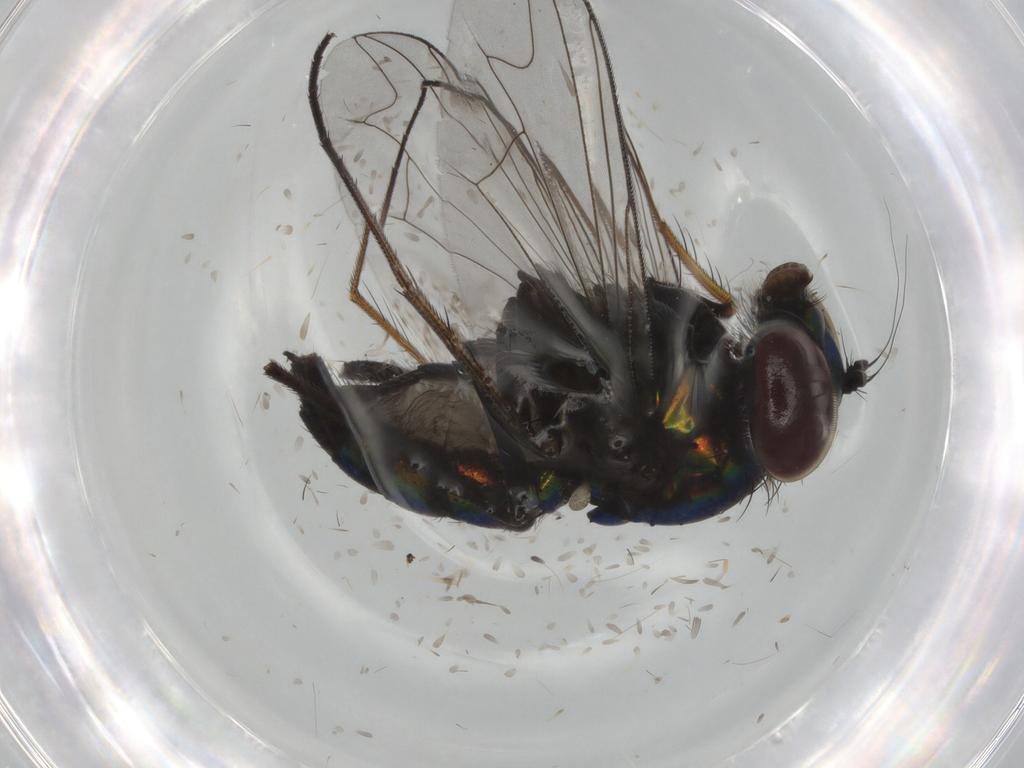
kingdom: Animalia
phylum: Arthropoda
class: Insecta
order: Diptera
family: Dolichopodidae
